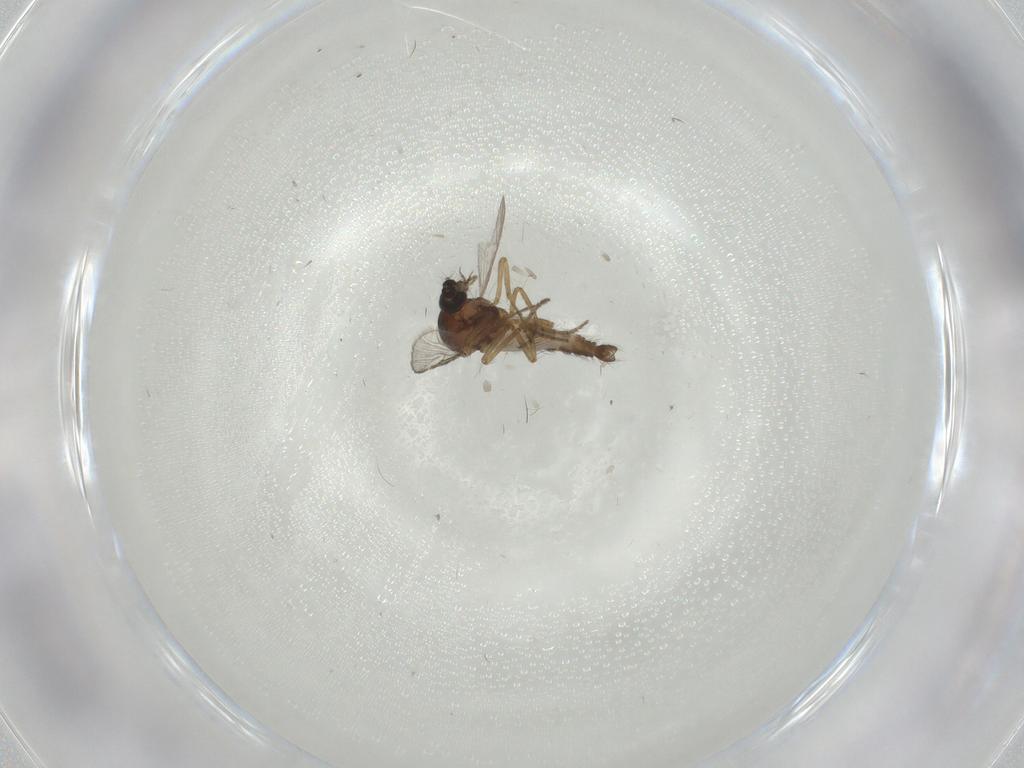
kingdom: Animalia
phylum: Arthropoda
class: Insecta
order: Diptera
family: Ceratopogonidae
